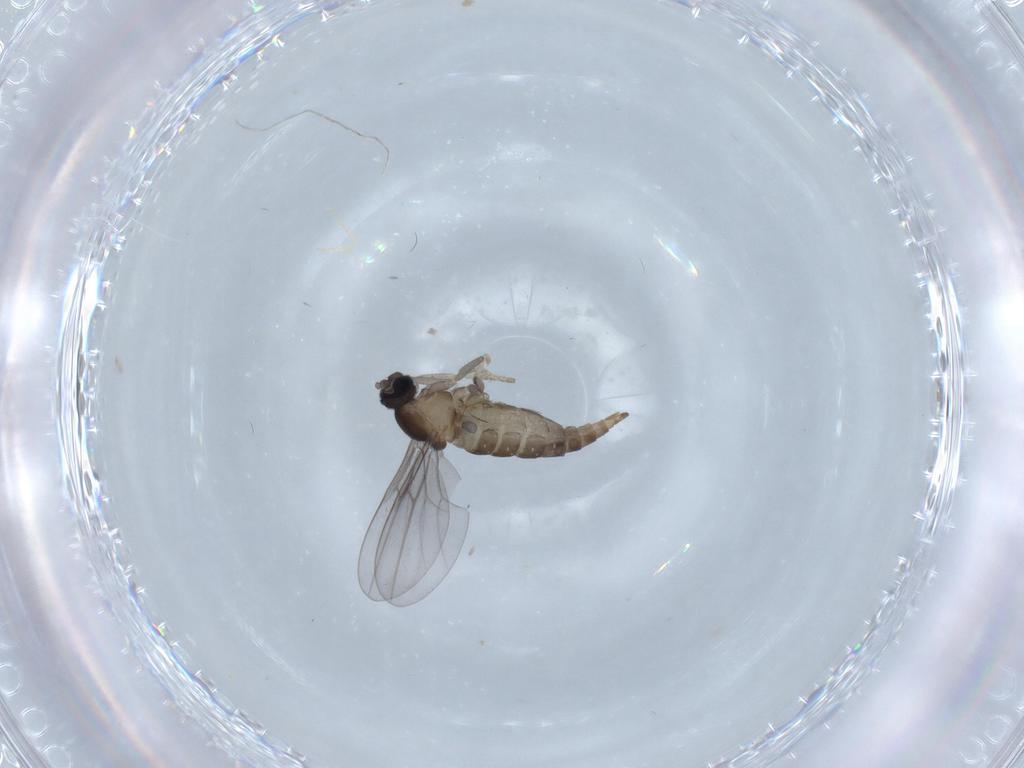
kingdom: Animalia
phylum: Arthropoda
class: Insecta
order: Diptera
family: Cecidomyiidae
